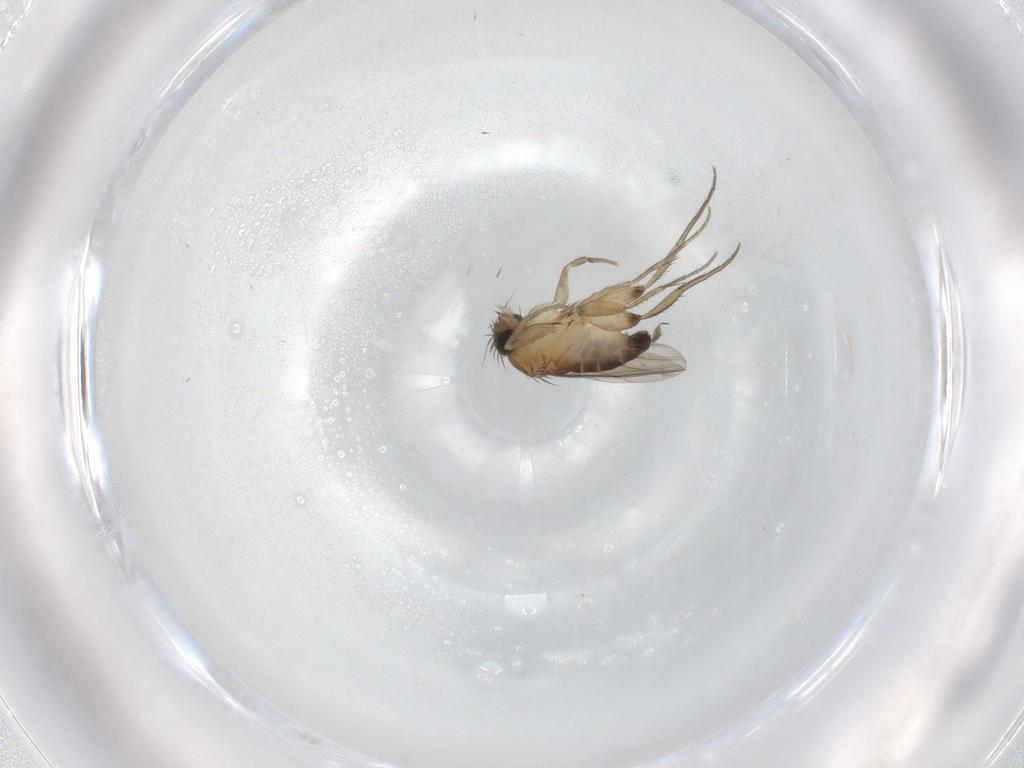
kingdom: Animalia
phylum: Arthropoda
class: Insecta
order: Diptera
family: Phoridae
